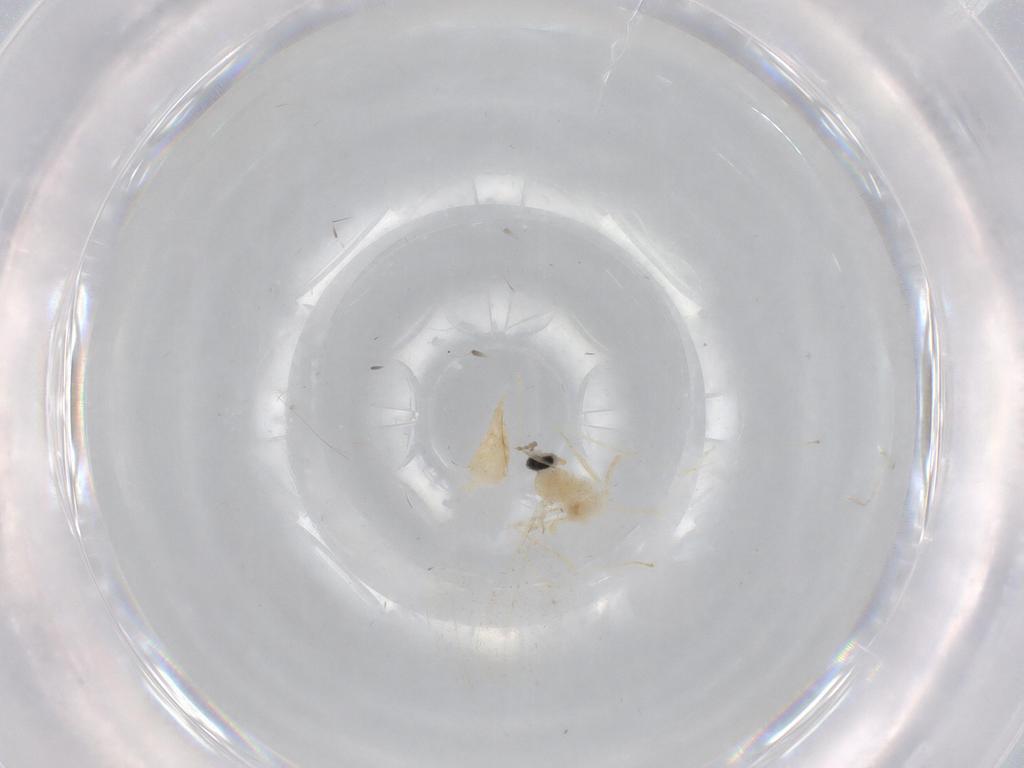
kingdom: Animalia
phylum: Arthropoda
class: Insecta
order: Diptera
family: Cecidomyiidae
